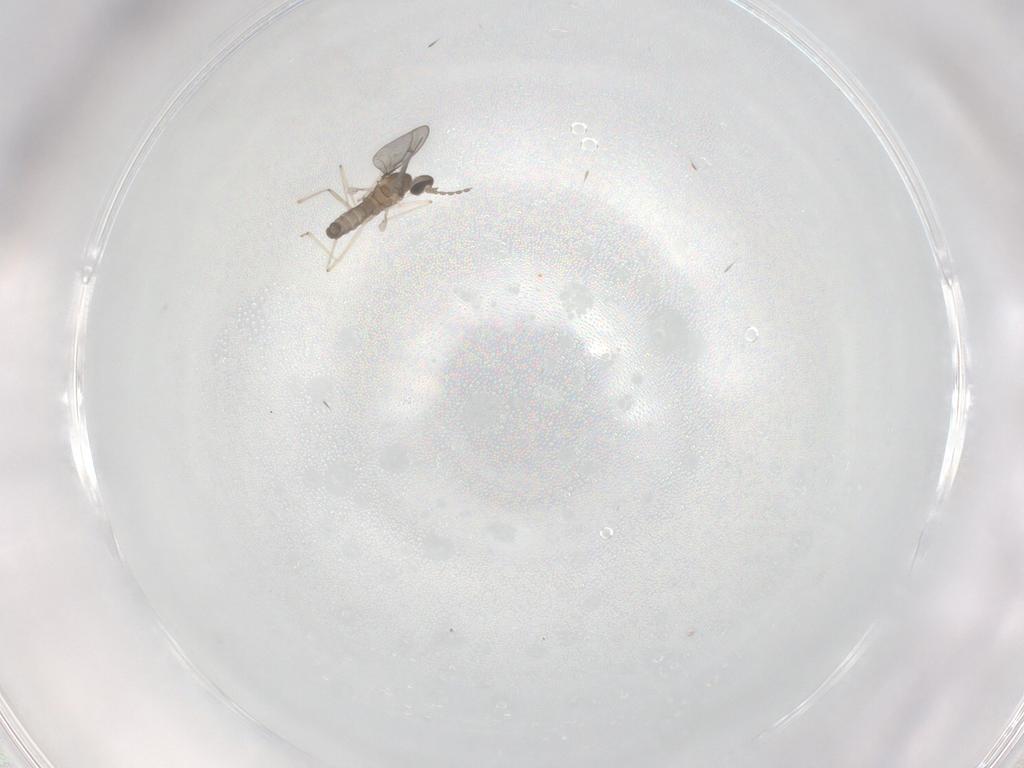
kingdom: Animalia
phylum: Arthropoda
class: Insecta
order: Diptera
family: Cecidomyiidae
